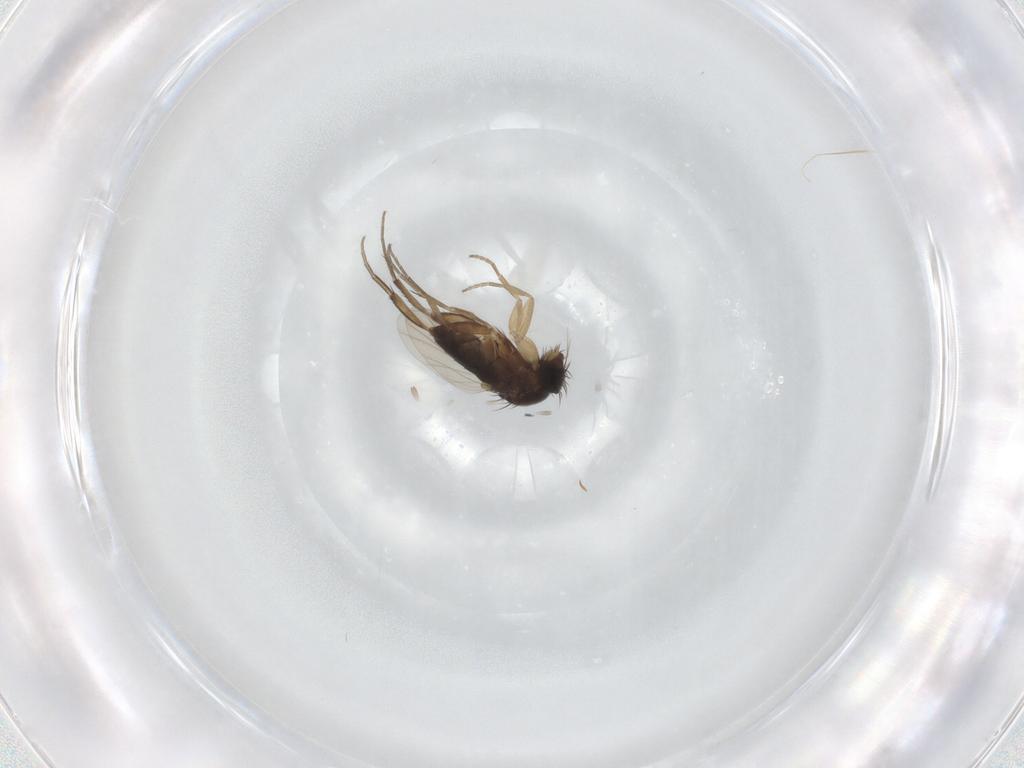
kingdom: Animalia
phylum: Arthropoda
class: Insecta
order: Diptera
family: Phoridae
